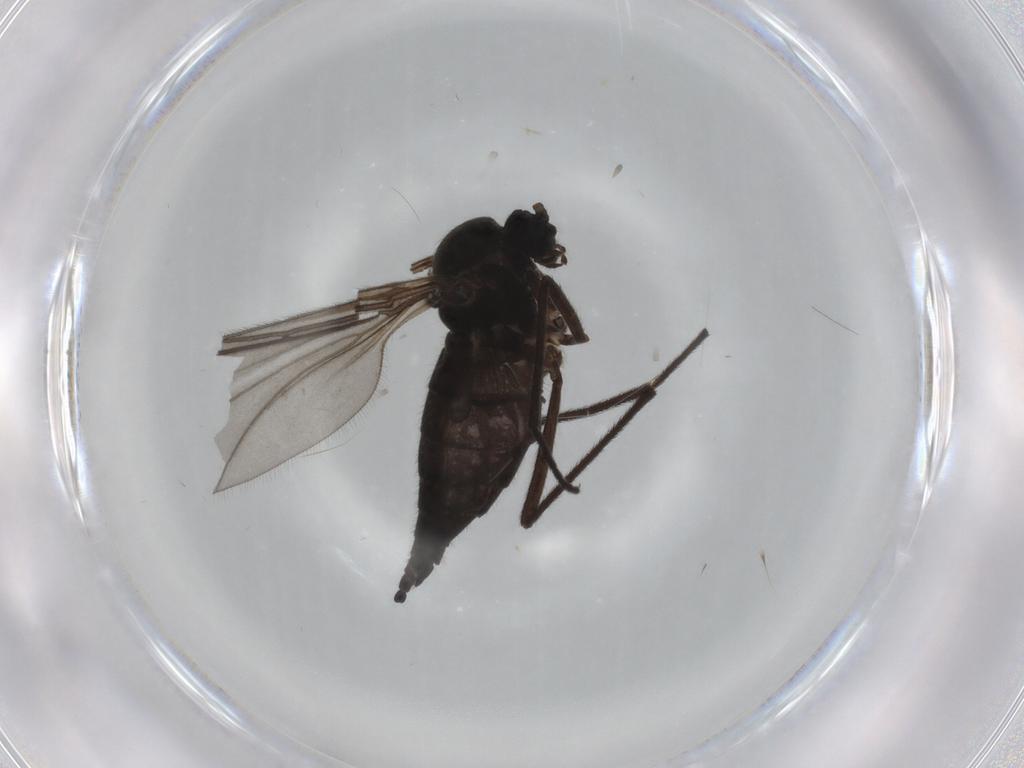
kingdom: Animalia
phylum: Arthropoda
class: Insecta
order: Diptera
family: Sciaridae
